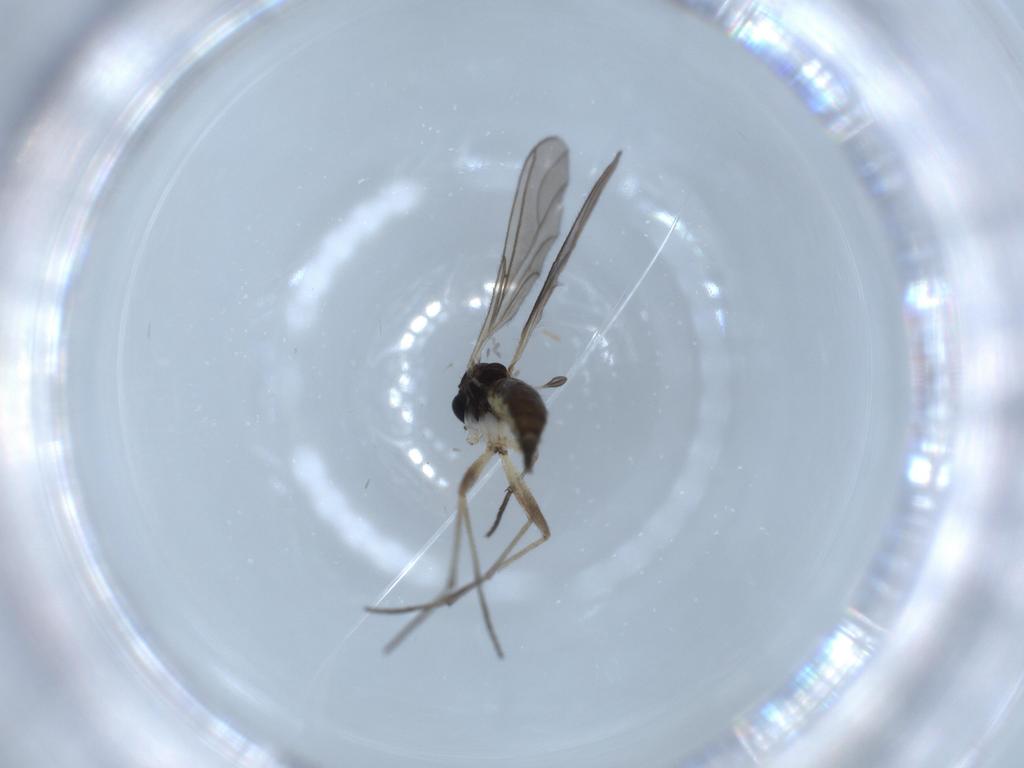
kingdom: Animalia
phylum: Arthropoda
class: Insecta
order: Diptera
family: Sciaridae
